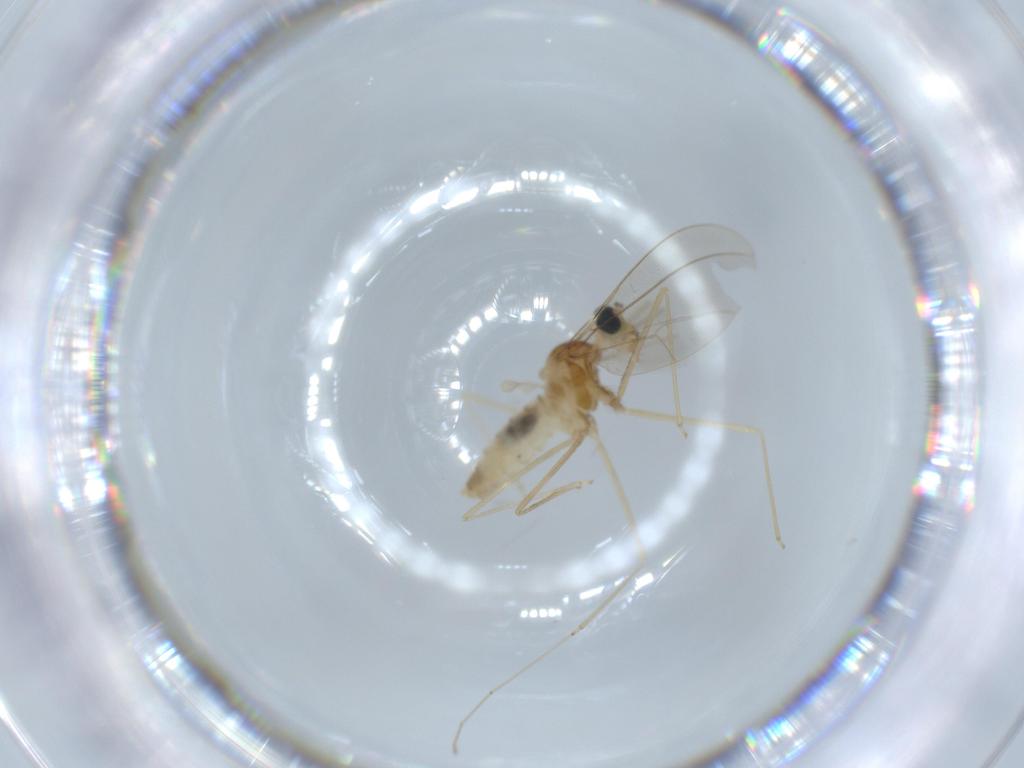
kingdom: Animalia
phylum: Arthropoda
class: Insecta
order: Diptera
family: Cecidomyiidae
